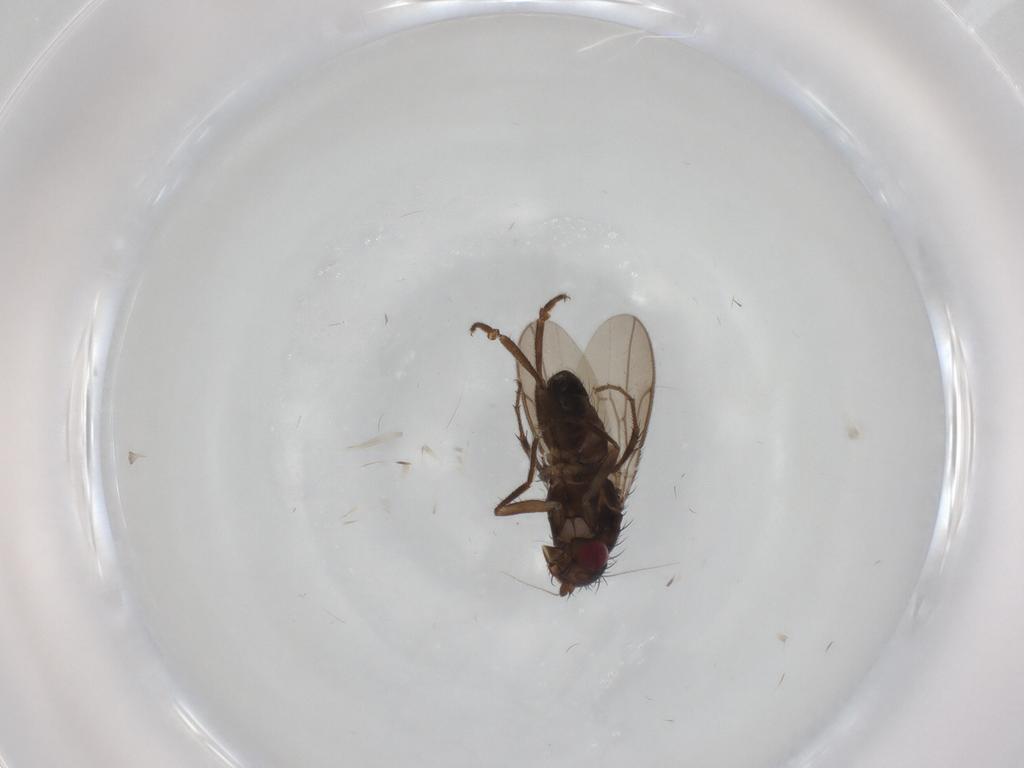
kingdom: Animalia
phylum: Arthropoda
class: Insecta
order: Diptera
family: Sphaeroceridae
